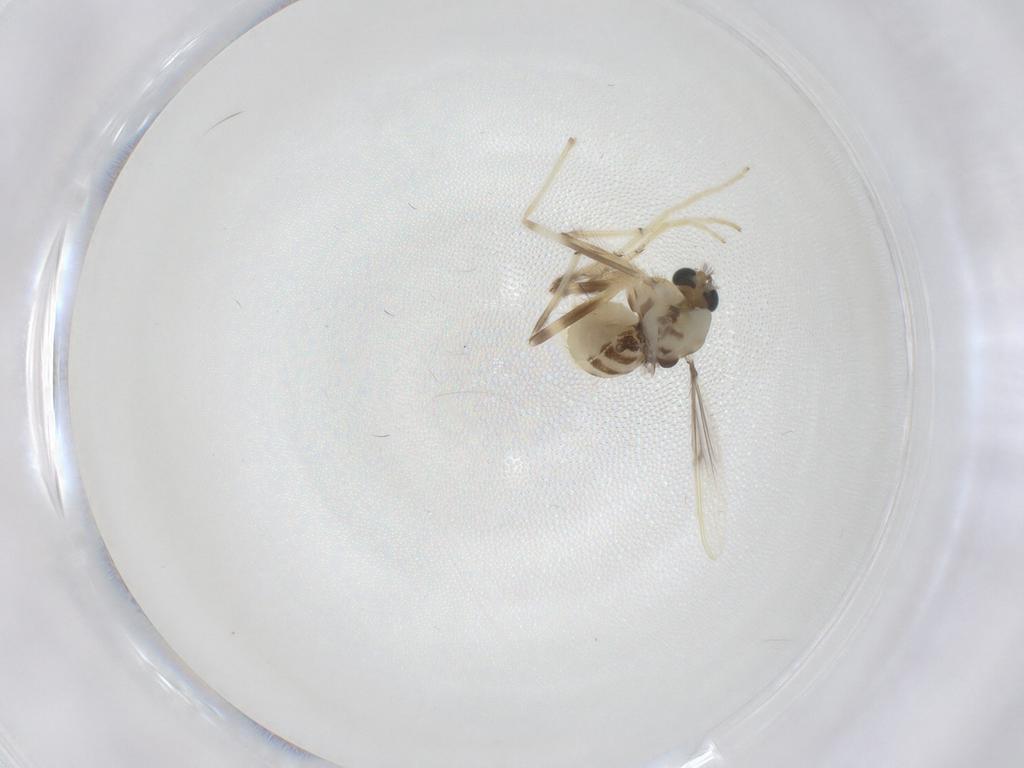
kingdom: Animalia
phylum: Arthropoda
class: Insecta
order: Diptera
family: Chironomidae
